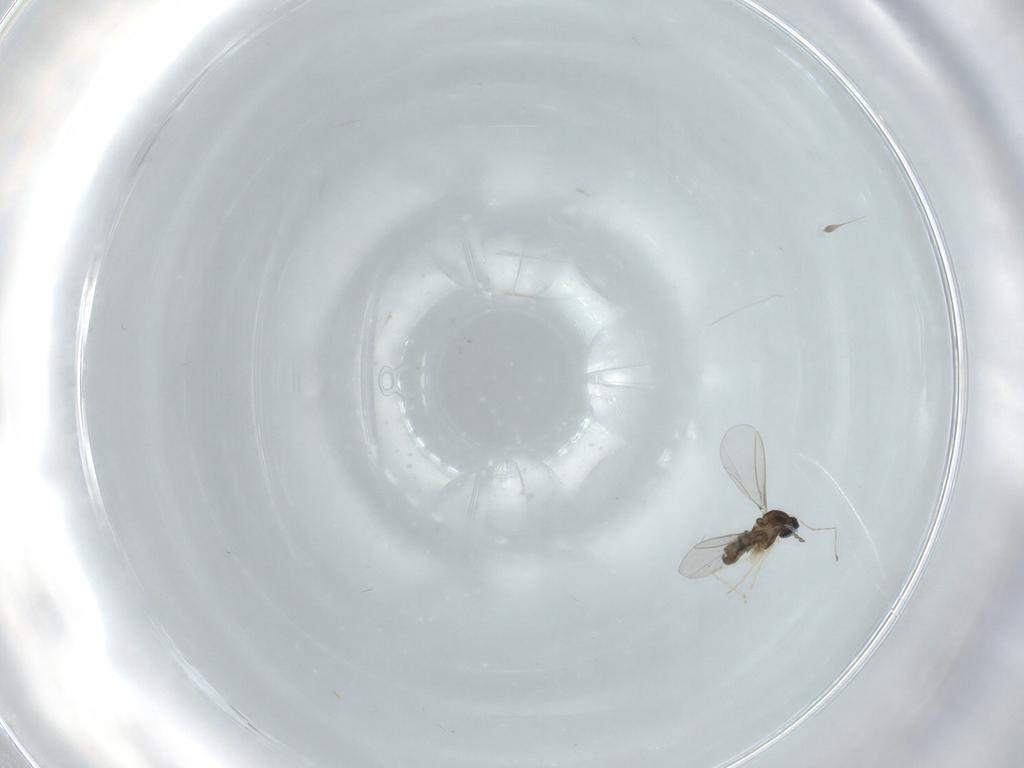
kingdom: Animalia
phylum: Arthropoda
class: Insecta
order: Diptera
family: Cecidomyiidae
